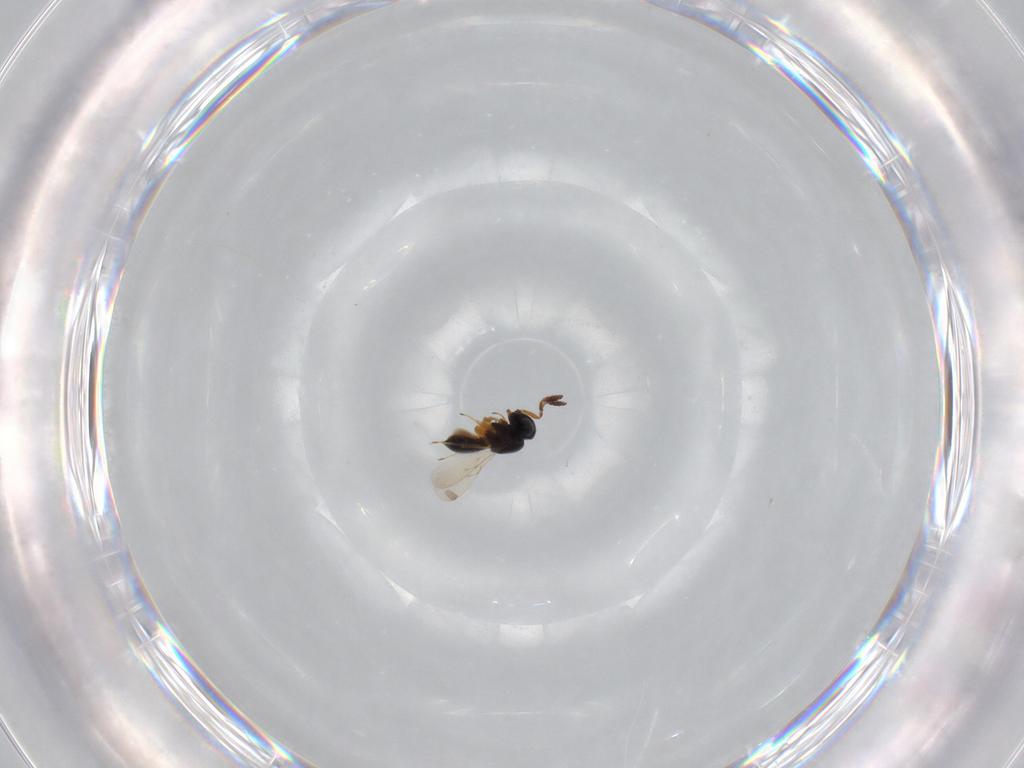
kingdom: Animalia
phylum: Arthropoda
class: Insecta
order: Hymenoptera
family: Scelionidae
